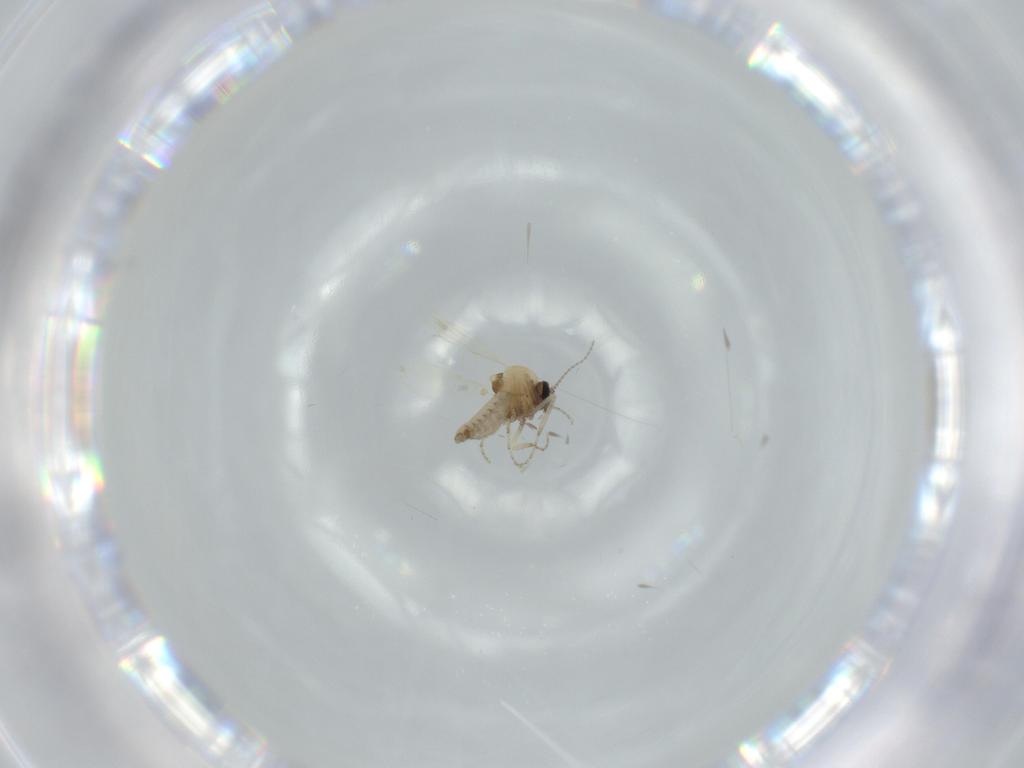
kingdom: Animalia
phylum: Arthropoda
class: Insecta
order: Diptera
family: Ceratopogonidae
